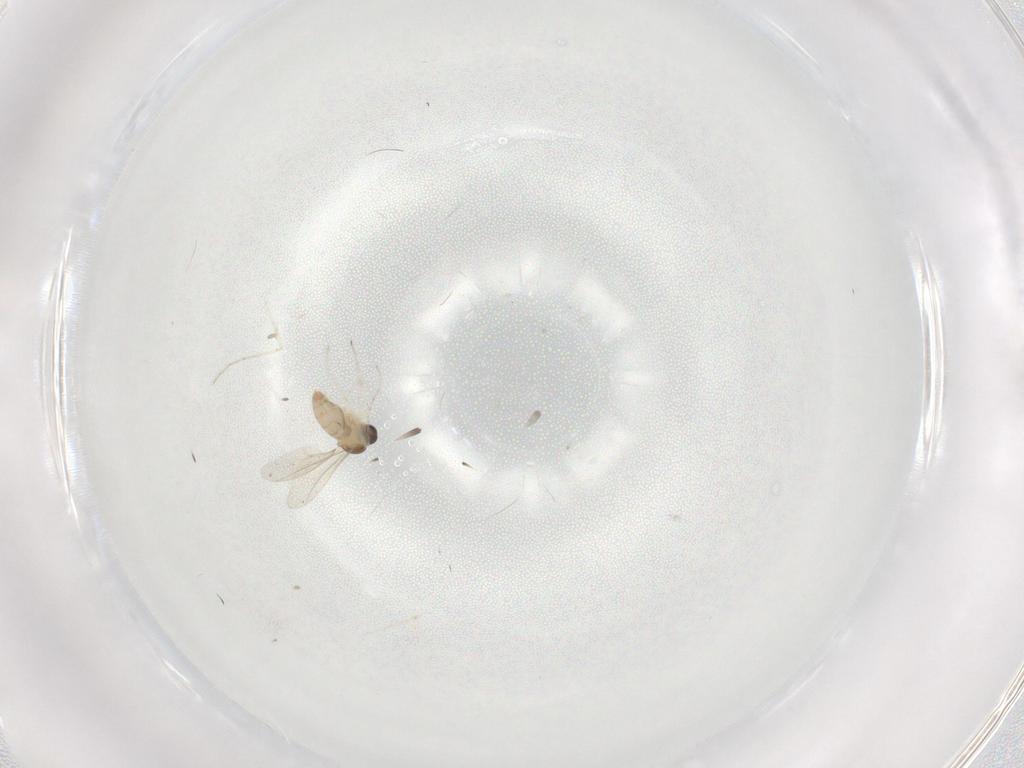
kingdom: Animalia
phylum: Arthropoda
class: Insecta
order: Diptera
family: Cecidomyiidae
